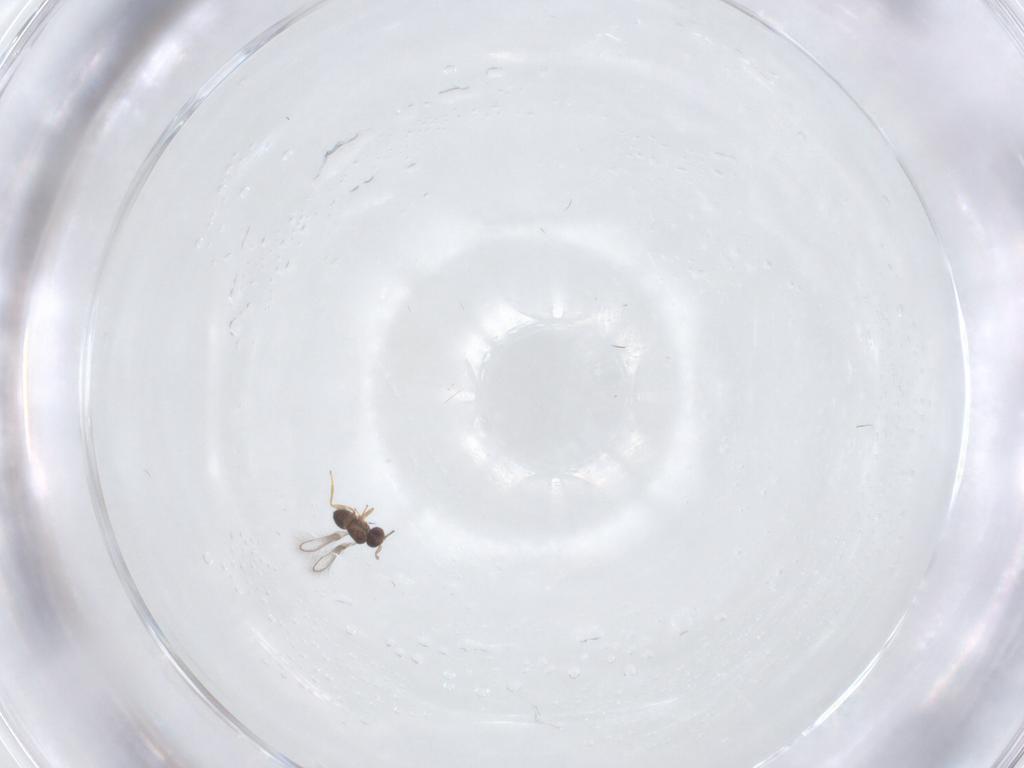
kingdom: Animalia
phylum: Arthropoda
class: Insecta
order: Hymenoptera
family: Mymaridae
